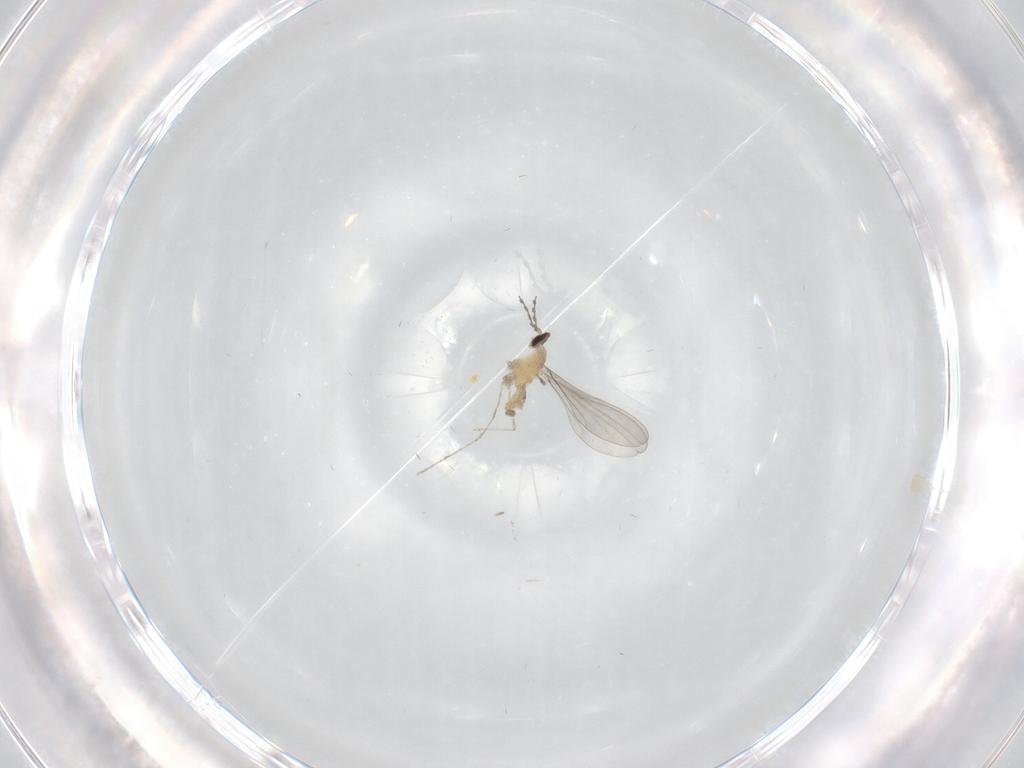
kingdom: Animalia
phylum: Arthropoda
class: Insecta
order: Diptera
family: Cecidomyiidae
